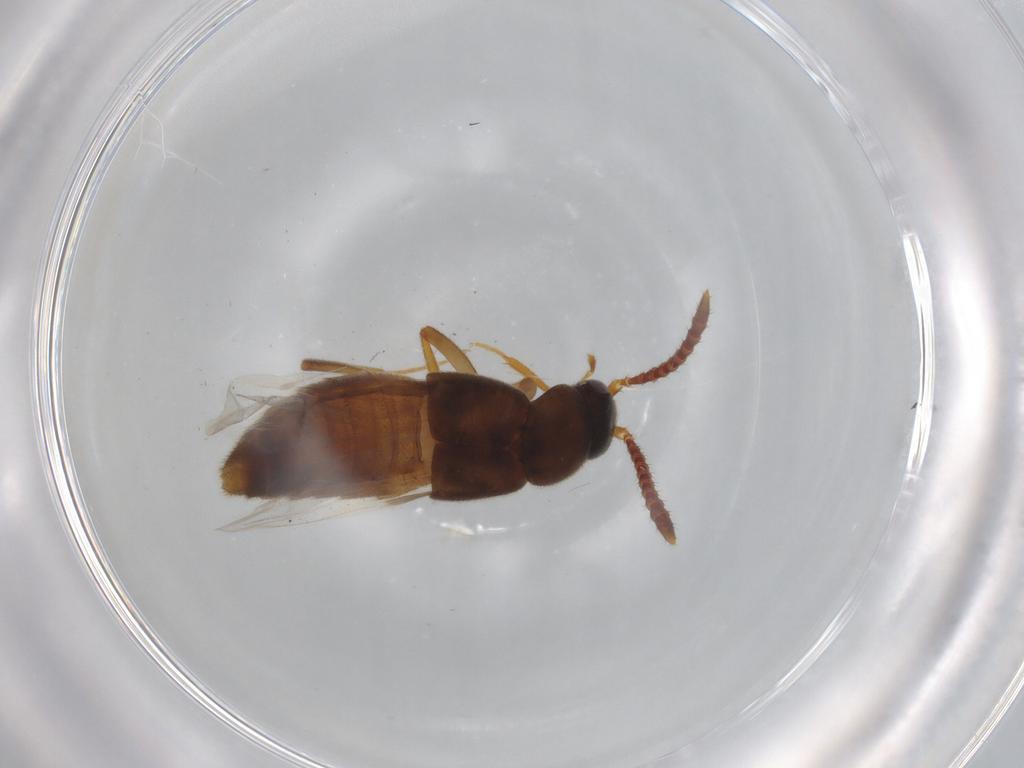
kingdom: Animalia
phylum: Arthropoda
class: Insecta
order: Coleoptera
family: Staphylinidae
